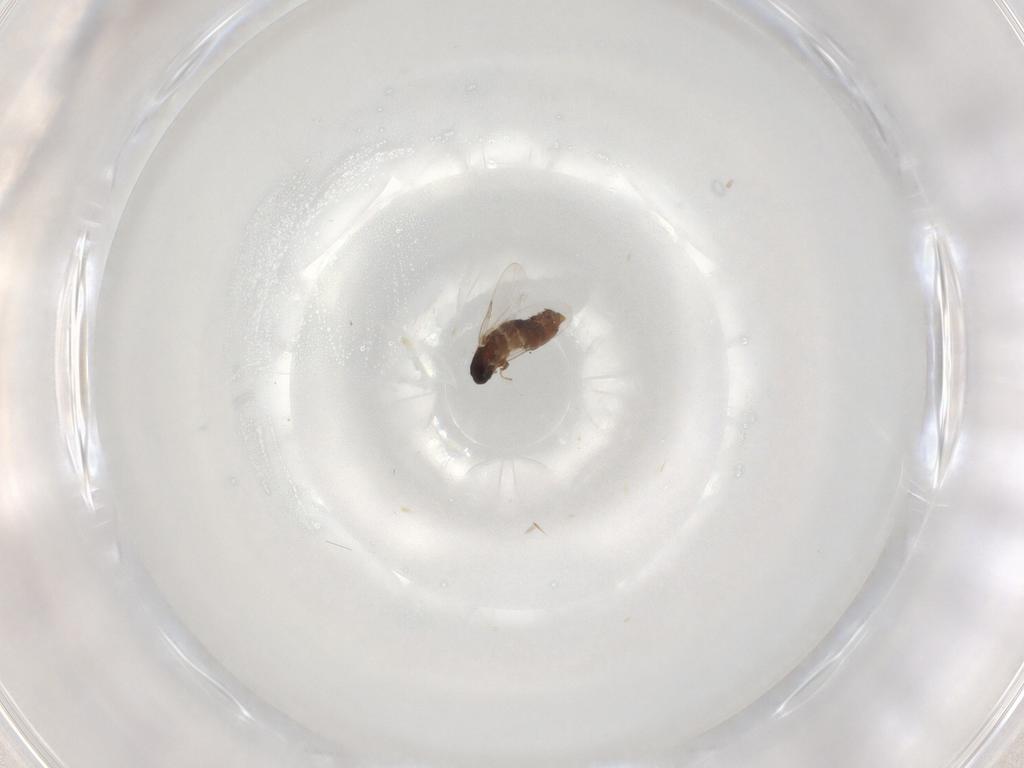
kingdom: Animalia
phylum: Arthropoda
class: Insecta
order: Diptera
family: Scatopsidae
